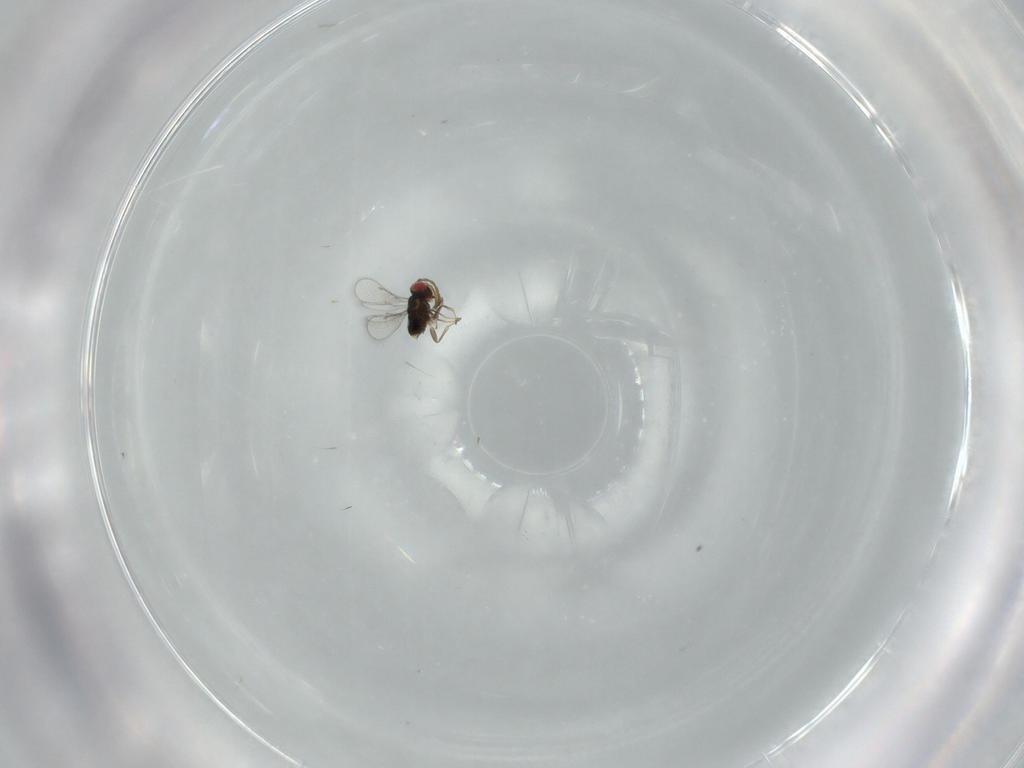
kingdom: Animalia
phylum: Arthropoda
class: Insecta
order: Hymenoptera
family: Azotidae
